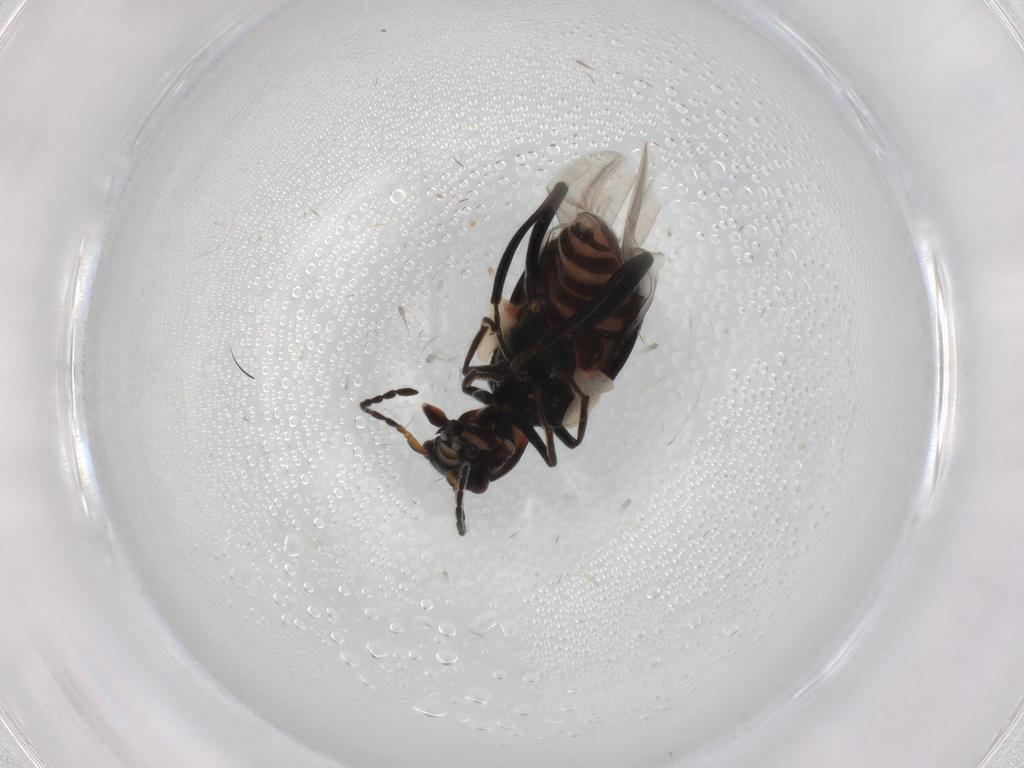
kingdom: Animalia
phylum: Arthropoda
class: Insecta
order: Coleoptera
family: Melyridae
